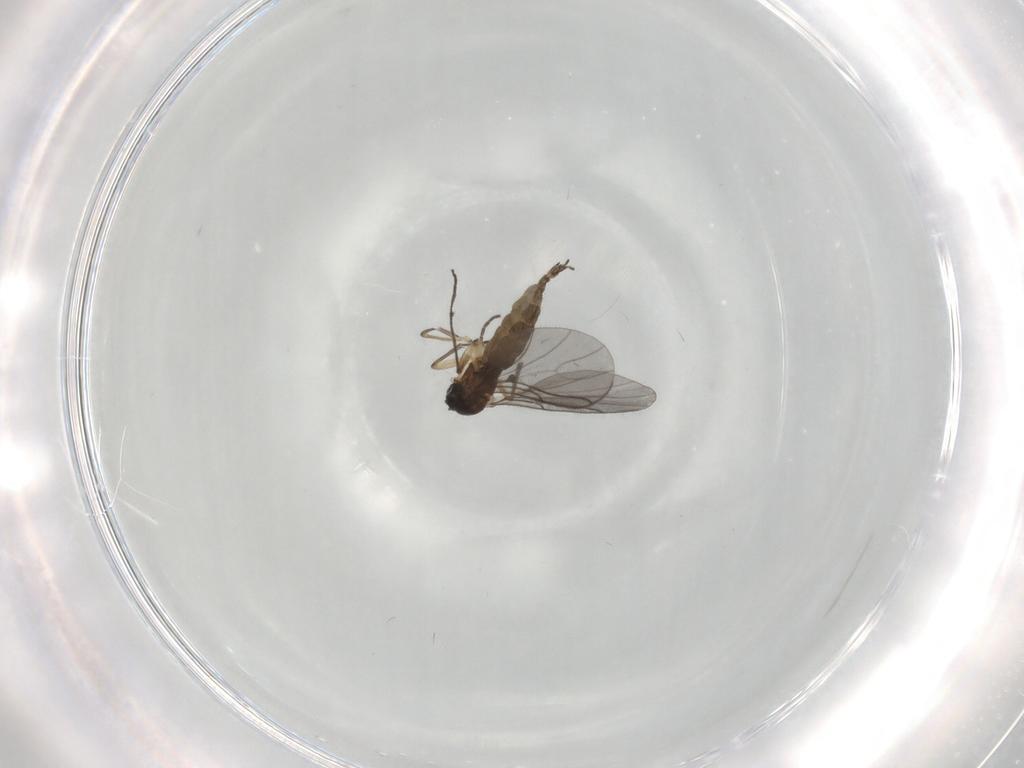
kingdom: Animalia
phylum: Arthropoda
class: Insecta
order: Diptera
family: Sciaridae
